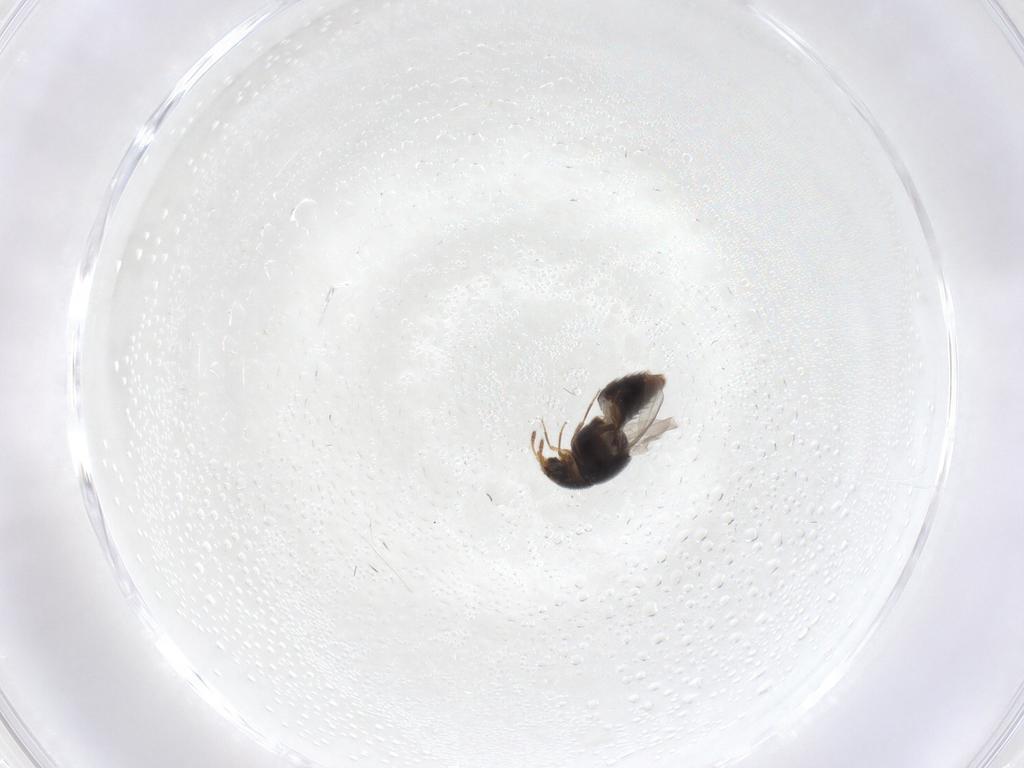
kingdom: Animalia
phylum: Arthropoda
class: Insecta
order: Coleoptera
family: Staphylinidae
